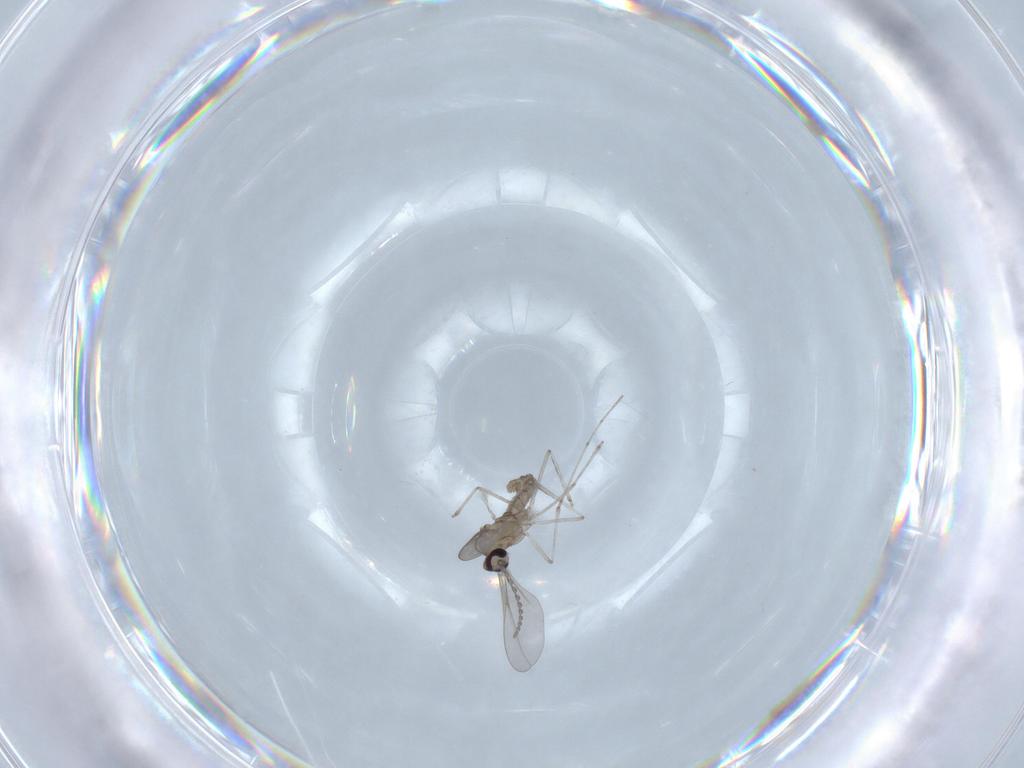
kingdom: Animalia
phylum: Arthropoda
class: Insecta
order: Diptera
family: Cecidomyiidae
